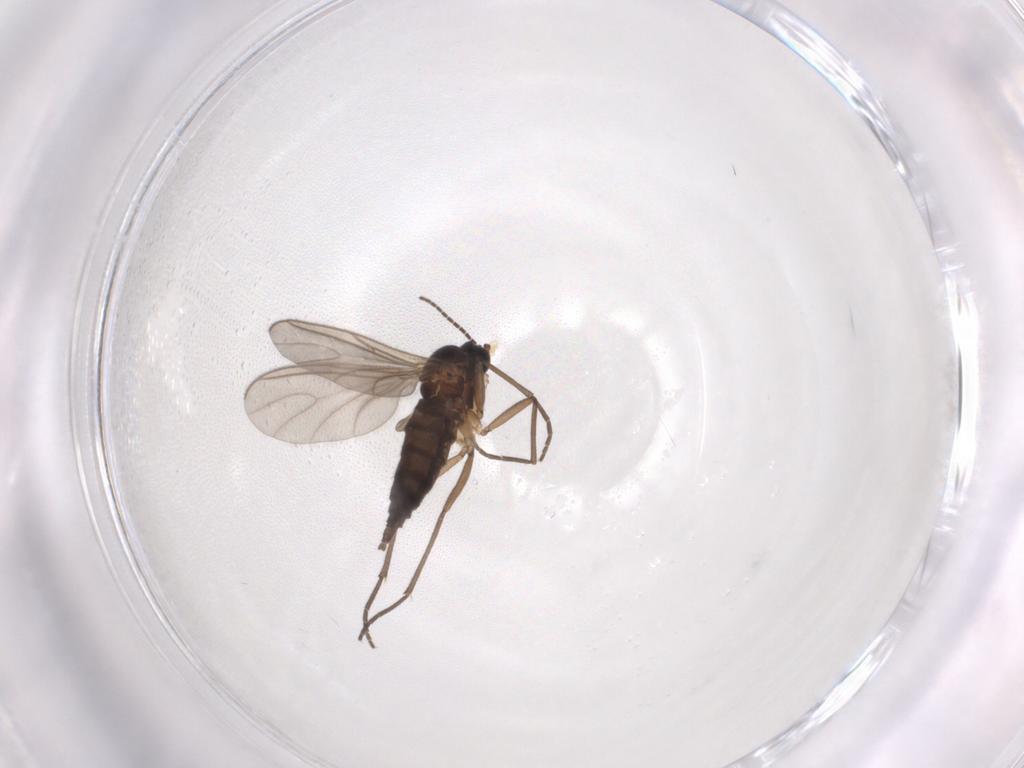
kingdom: Animalia
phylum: Arthropoda
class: Insecta
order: Diptera
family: Sciaridae
